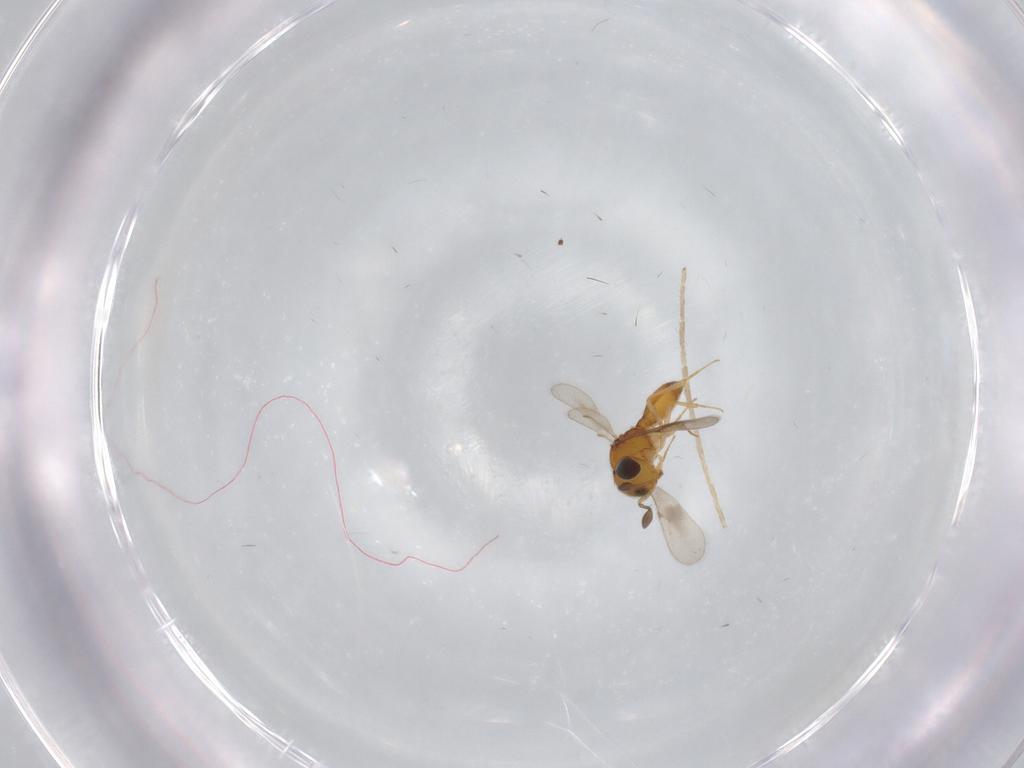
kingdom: Animalia
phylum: Arthropoda
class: Insecta
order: Hymenoptera
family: Scelionidae
